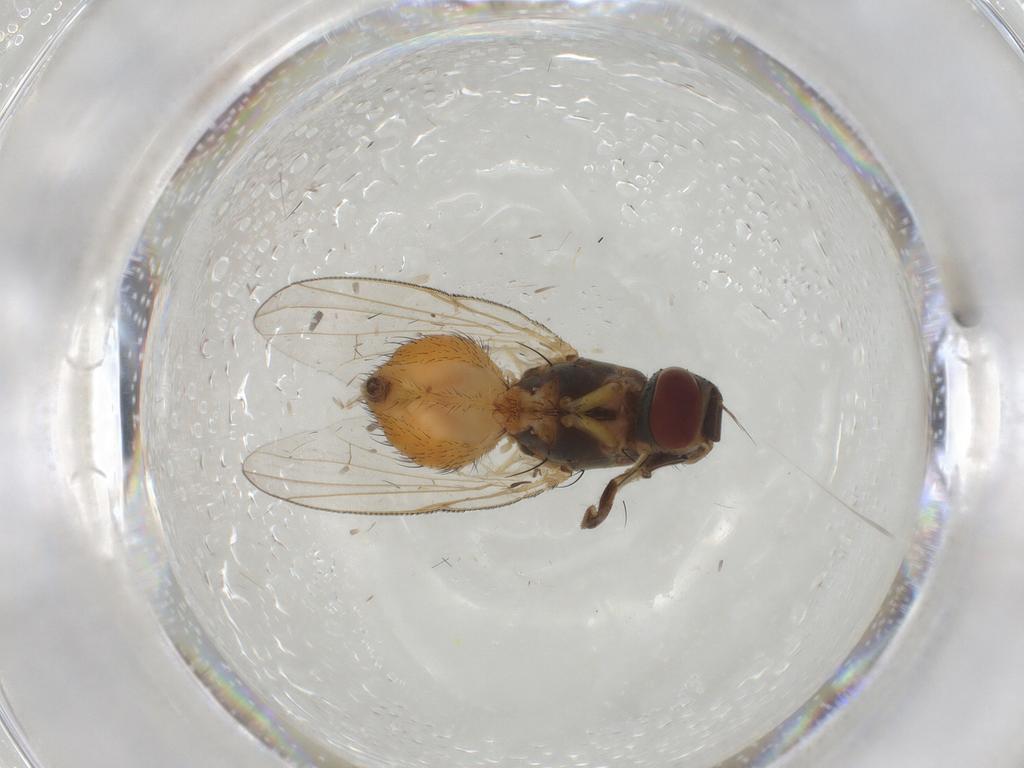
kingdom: Animalia
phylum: Arthropoda
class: Insecta
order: Diptera
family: Muscidae
